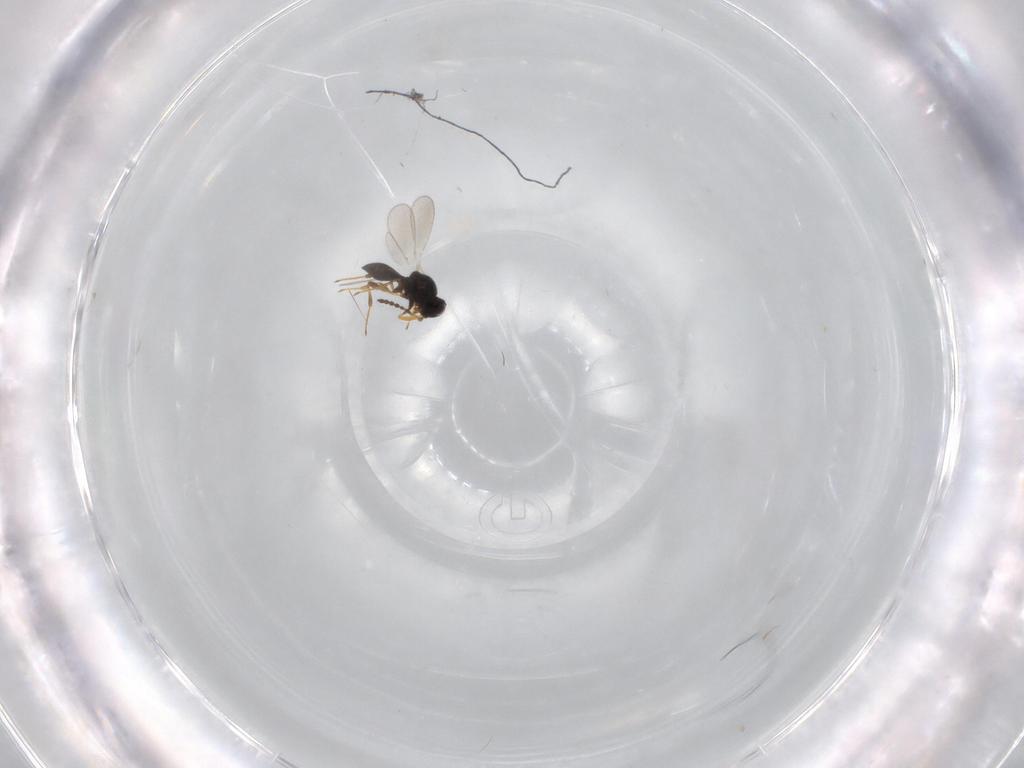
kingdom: Animalia
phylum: Arthropoda
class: Insecta
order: Hymenoptera
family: Platygastridae
